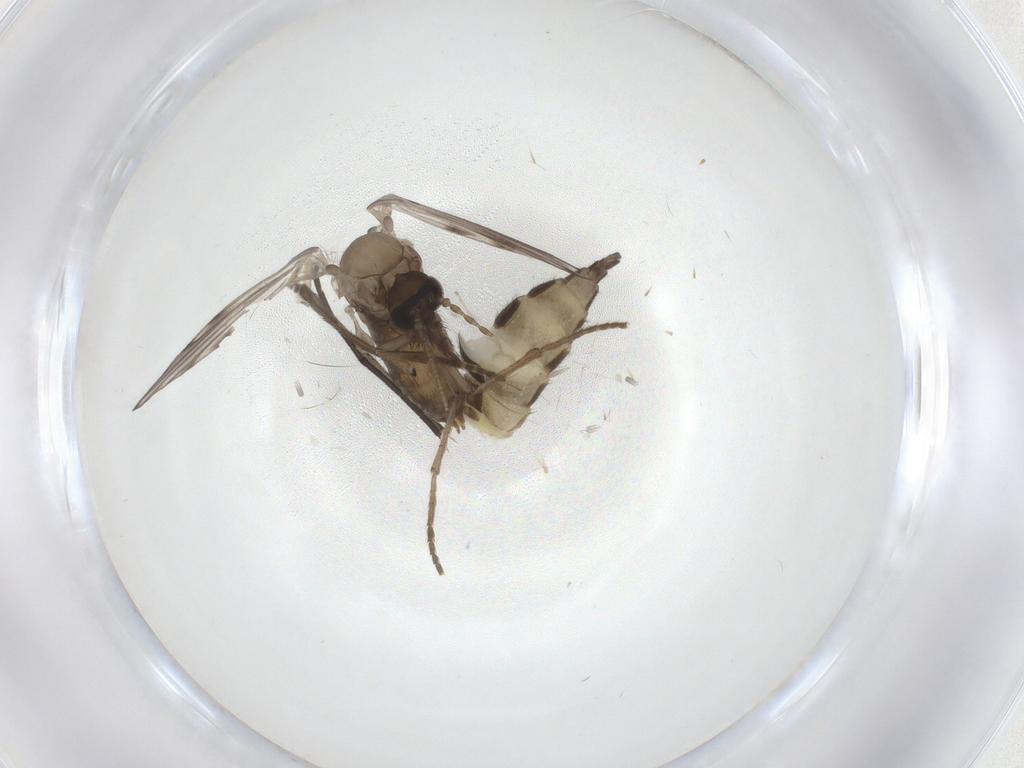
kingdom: Animalia
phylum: Arthropoda
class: Insecta
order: Diptera
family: Psychodidae
